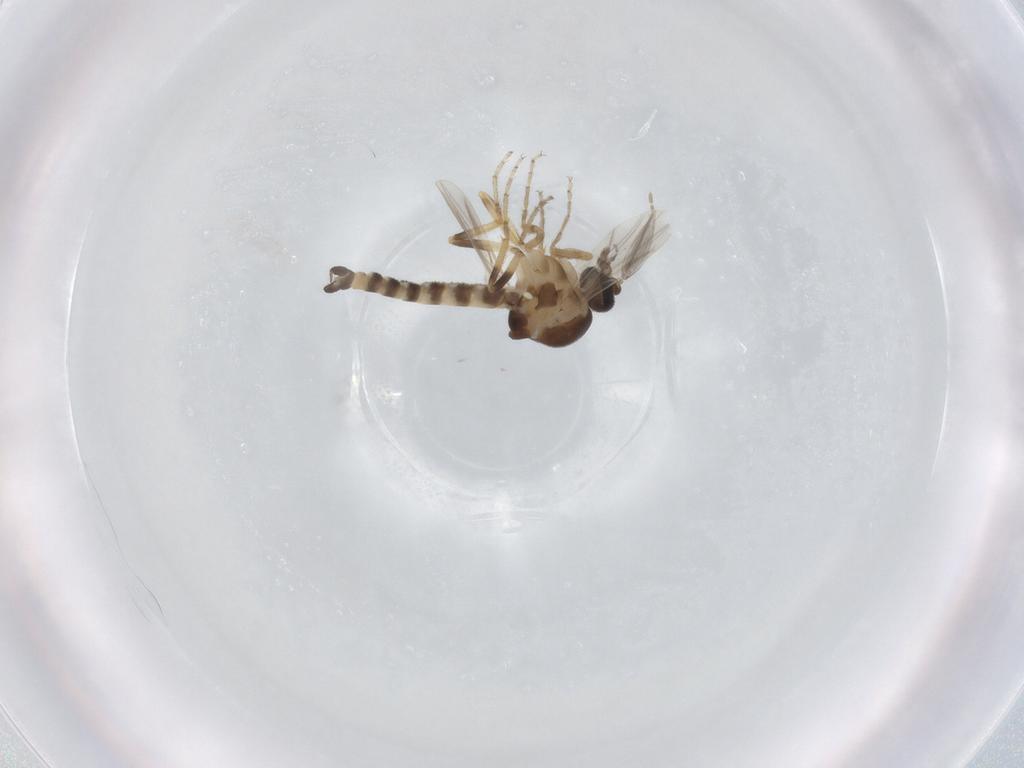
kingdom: Animalia
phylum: Arthropoda
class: Insecta
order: Diptera
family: Ceratopogonidae
